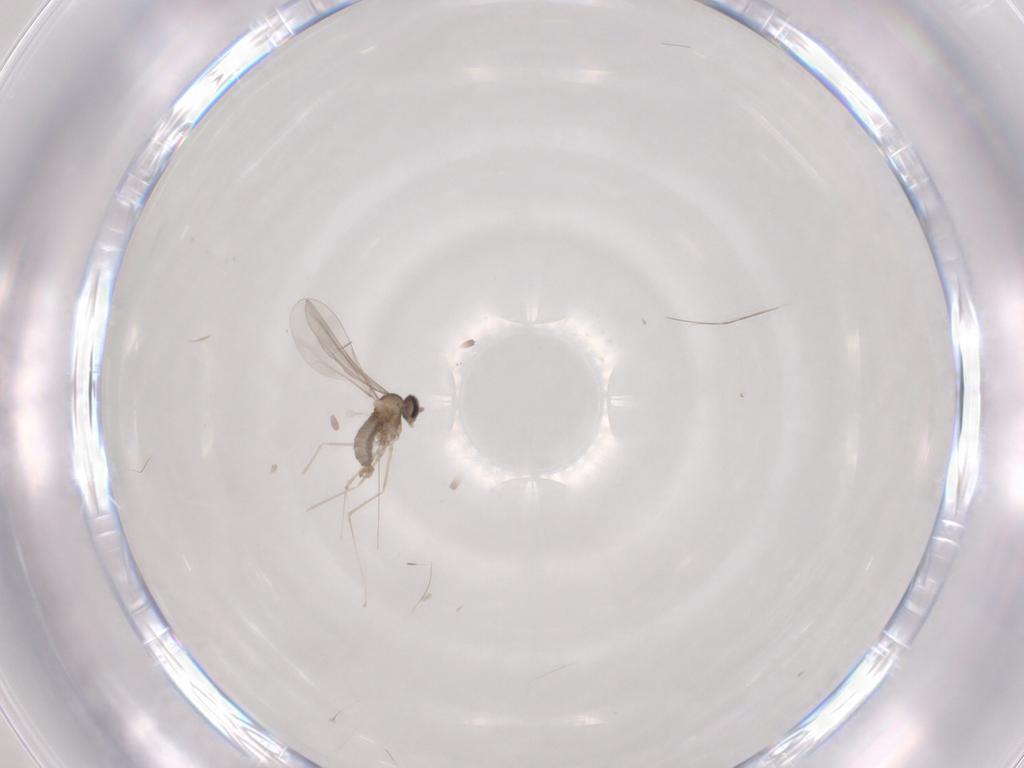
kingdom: Animalia
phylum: Arthropoda
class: Insecta
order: Psocodea
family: Caeciliusidae
